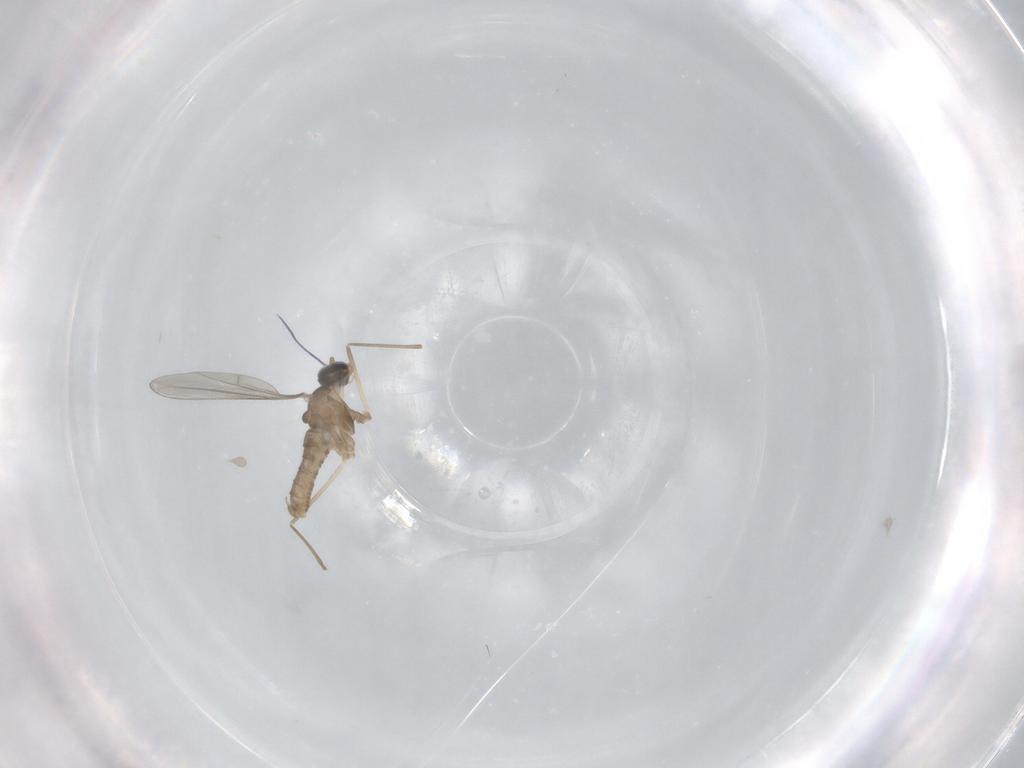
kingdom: Animalia
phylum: Arthropoda
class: Insecta
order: Diptera
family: Cecidomyiidae
